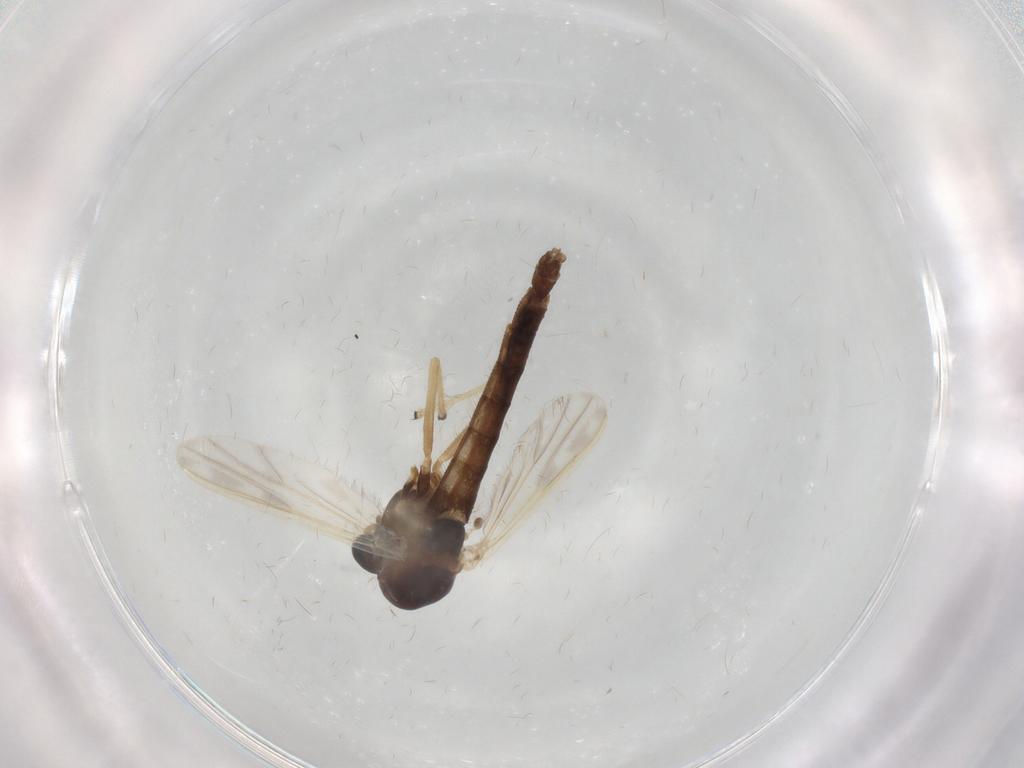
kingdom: Animalia
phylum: Arthropoda
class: Insecta
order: Diptera
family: Chironomidae
